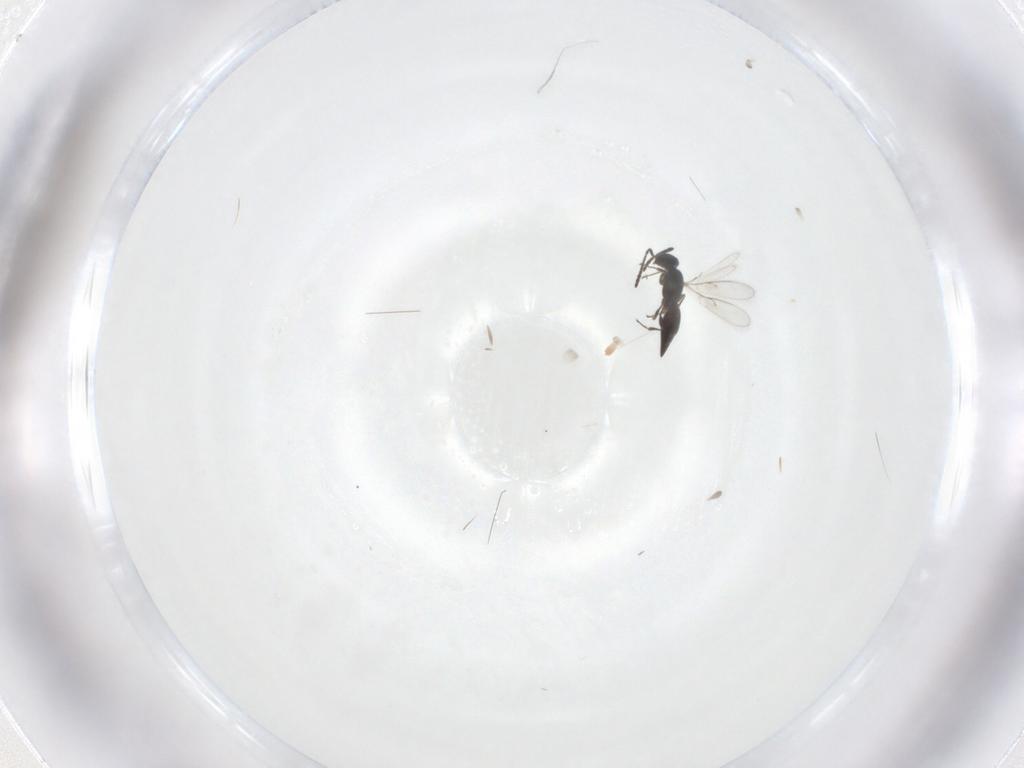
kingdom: Animalia
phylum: Arthropoda
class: Insecta
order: Hymenoptera
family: Scelionidae
